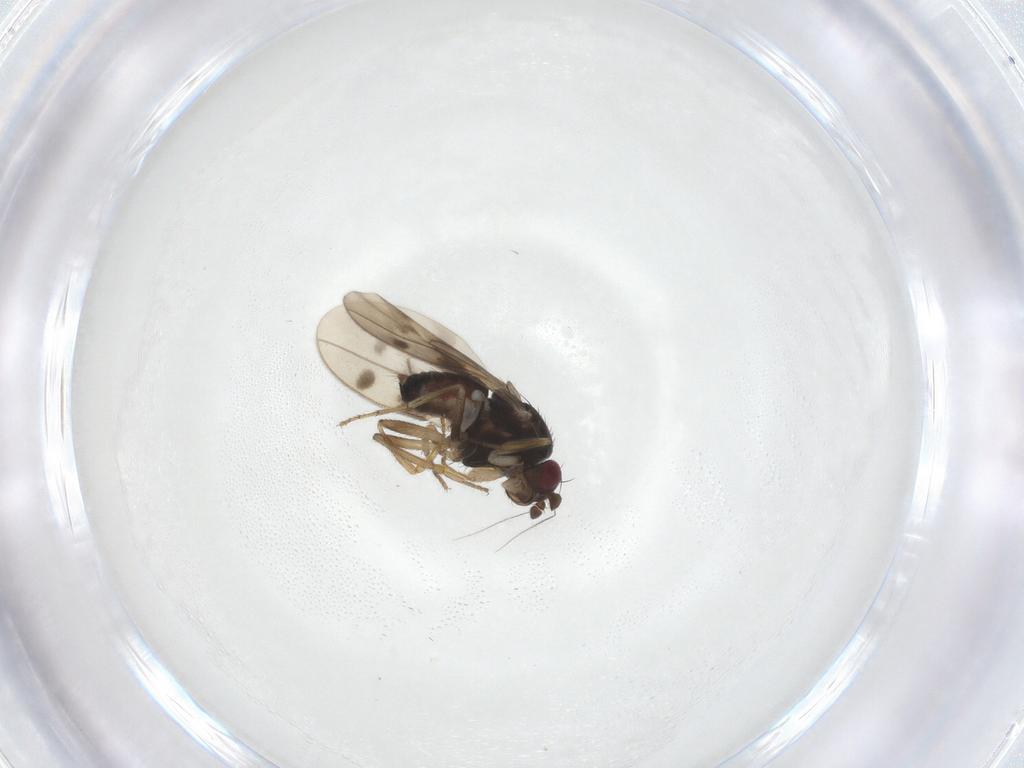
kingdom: Animalia
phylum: Arthropoda
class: Insecta
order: Diptera
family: Sphaeroceridae
